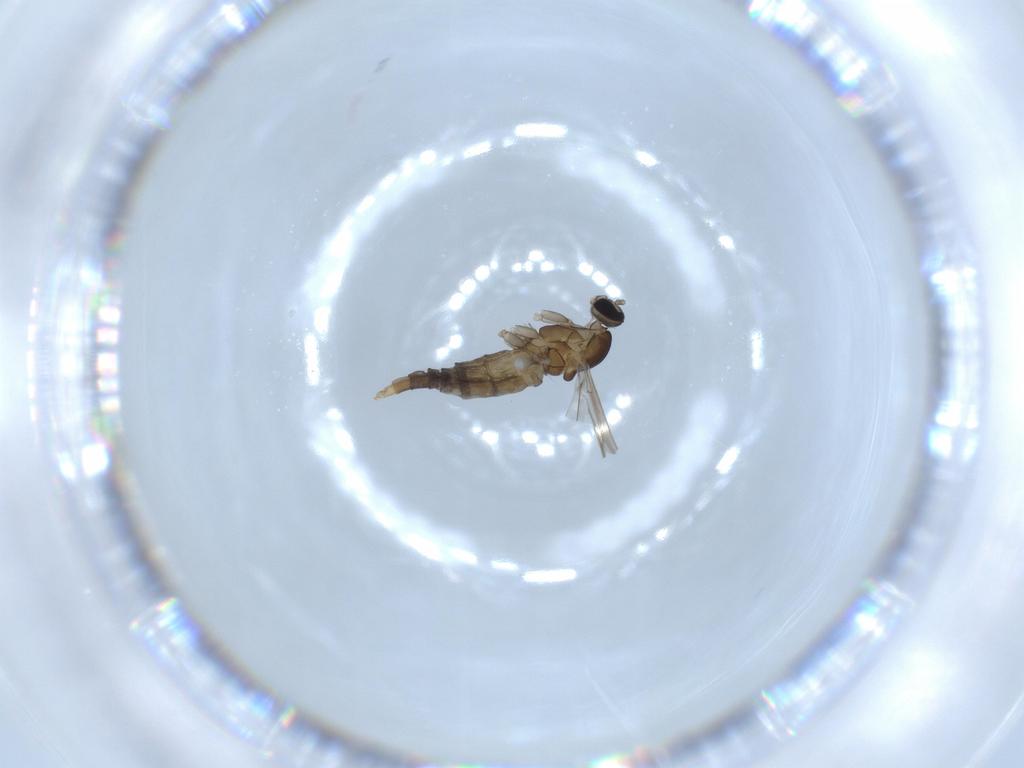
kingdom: Animalia
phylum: Arthropoda
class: Insecta
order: Diptera
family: Cecidomyiidae
